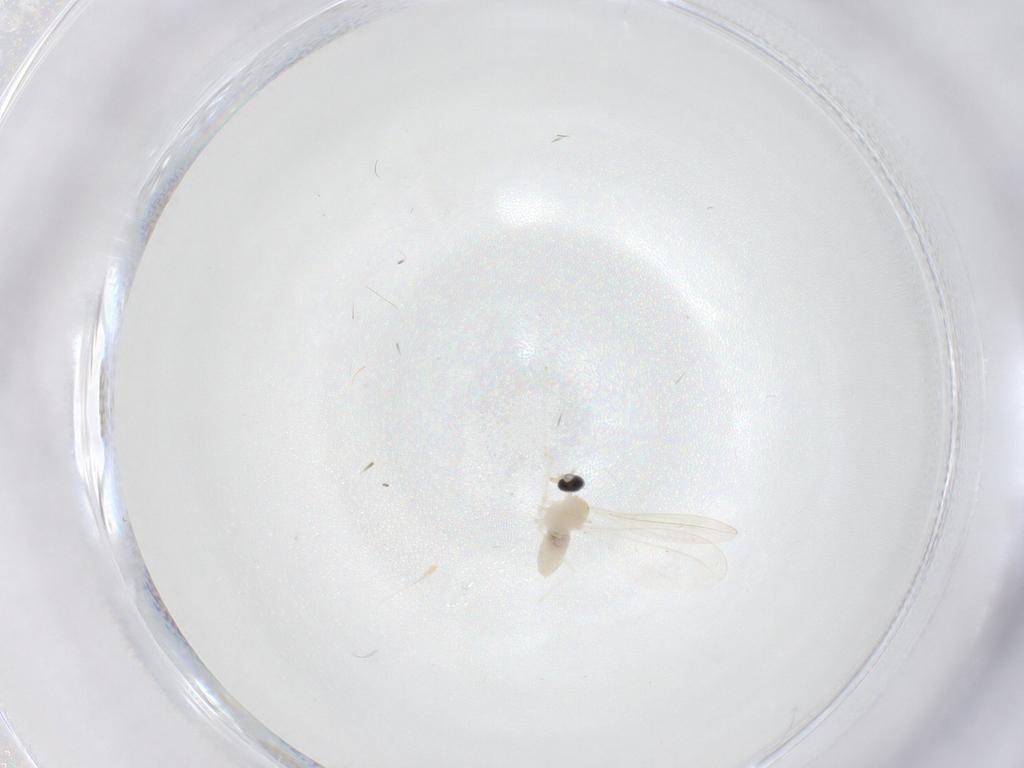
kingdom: Animalia
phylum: Arthropoda
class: Insecta
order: Diptera
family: Cecidomyiidae
